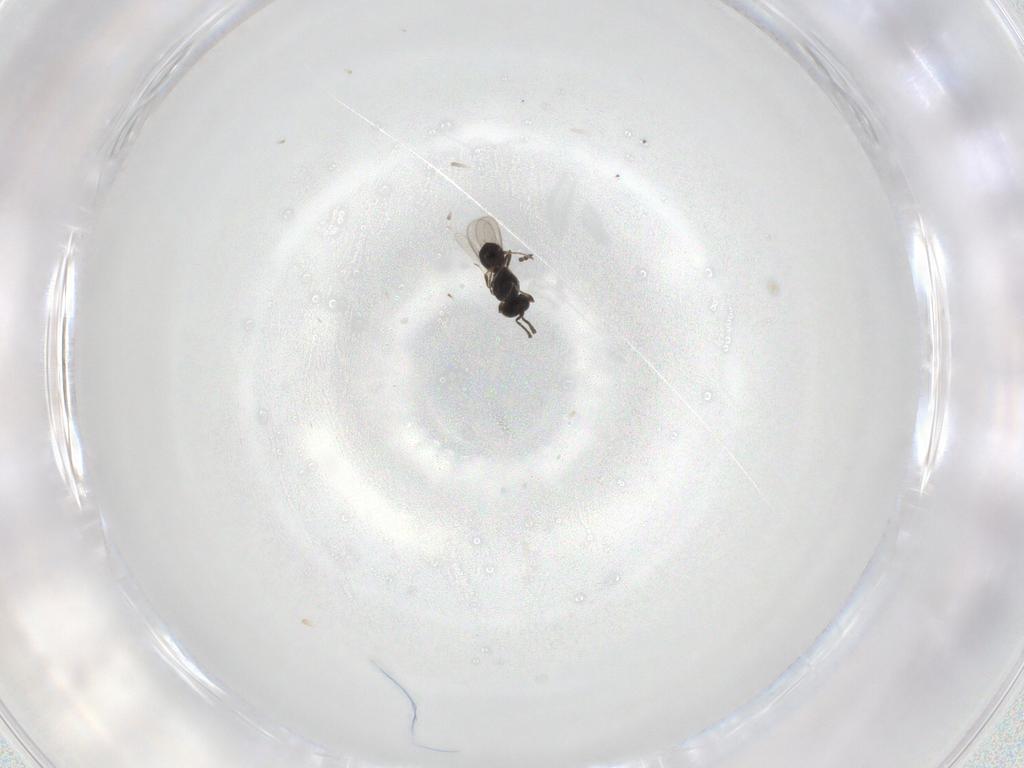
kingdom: Animalia
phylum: Arthropoda
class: Insecta
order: Hymenoptera
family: Scelionidae
